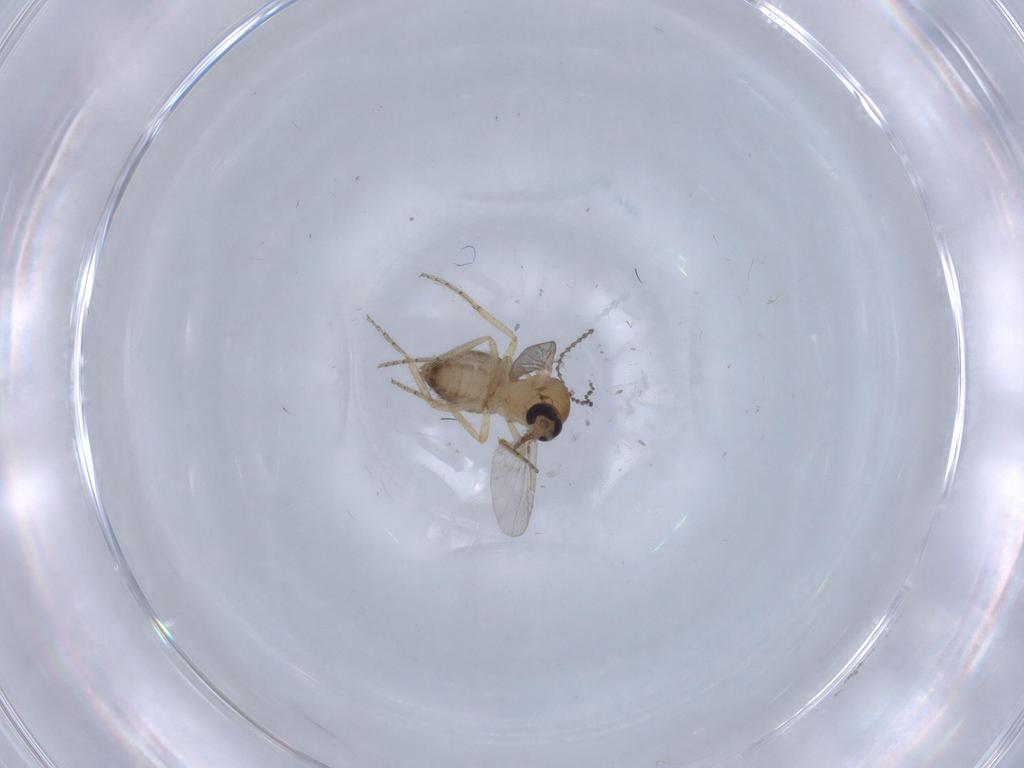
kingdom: Animalia
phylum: Arthropoda
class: Insecta
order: Diptera
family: Ceratopogonidae
